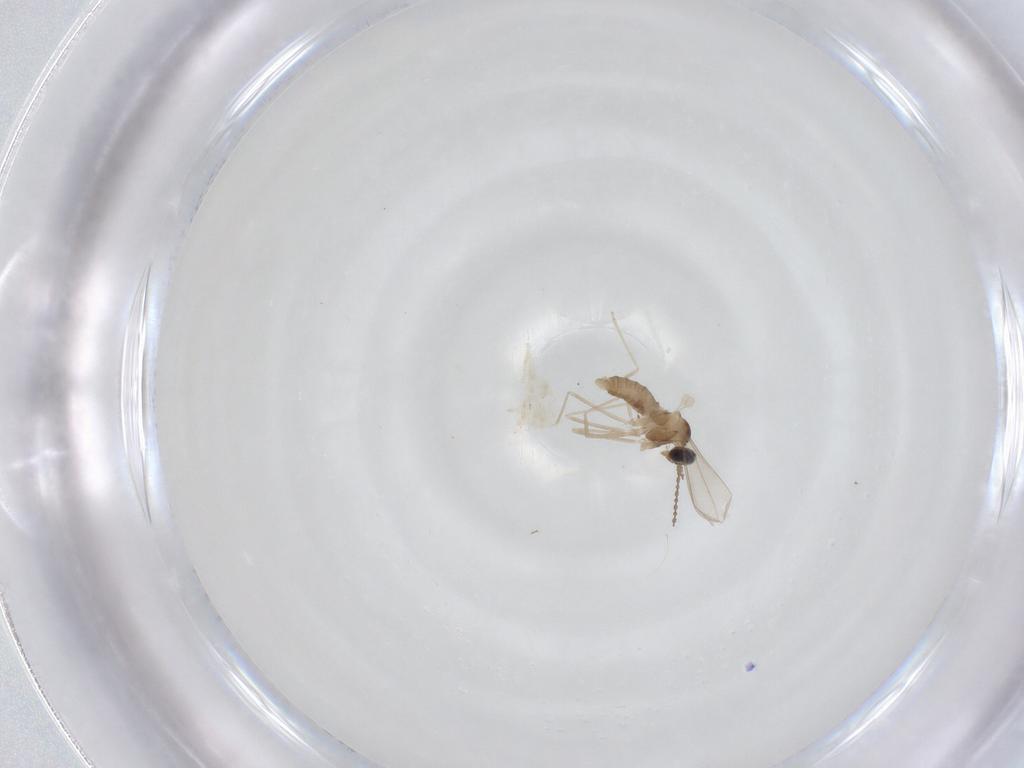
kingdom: Animalia
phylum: Arthropoda
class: Insecta
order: Diptera
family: Cecidomyiidae
